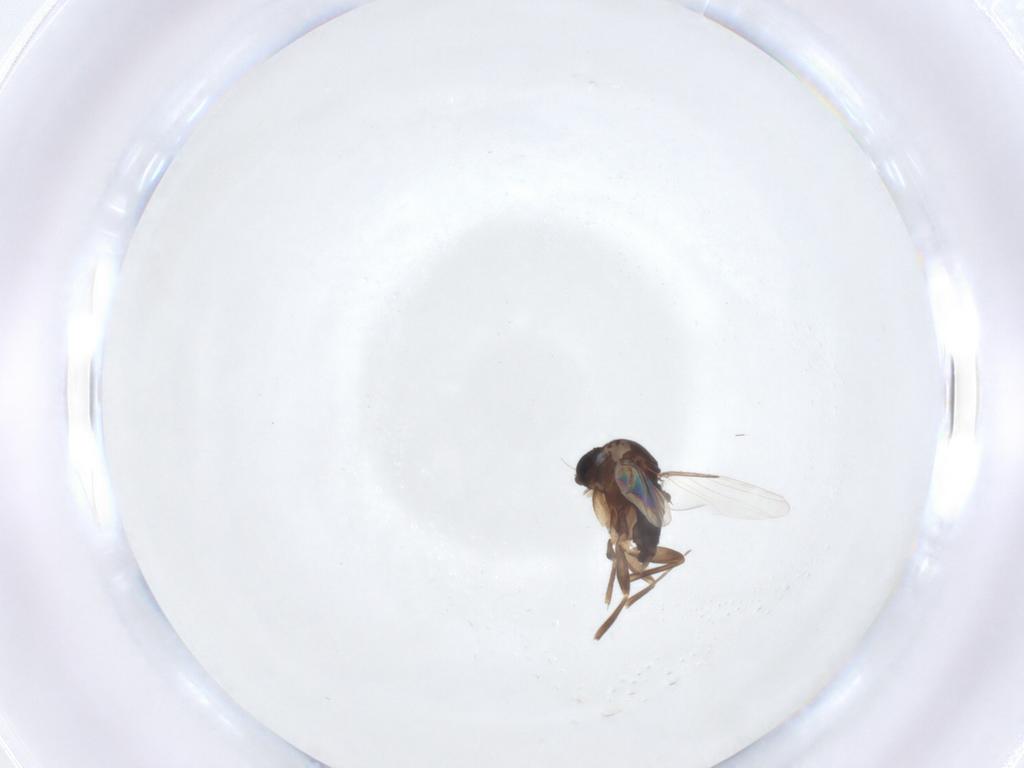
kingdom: Animalia
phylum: Arthropoda
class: Insecta
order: Diptera
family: Phoridae
